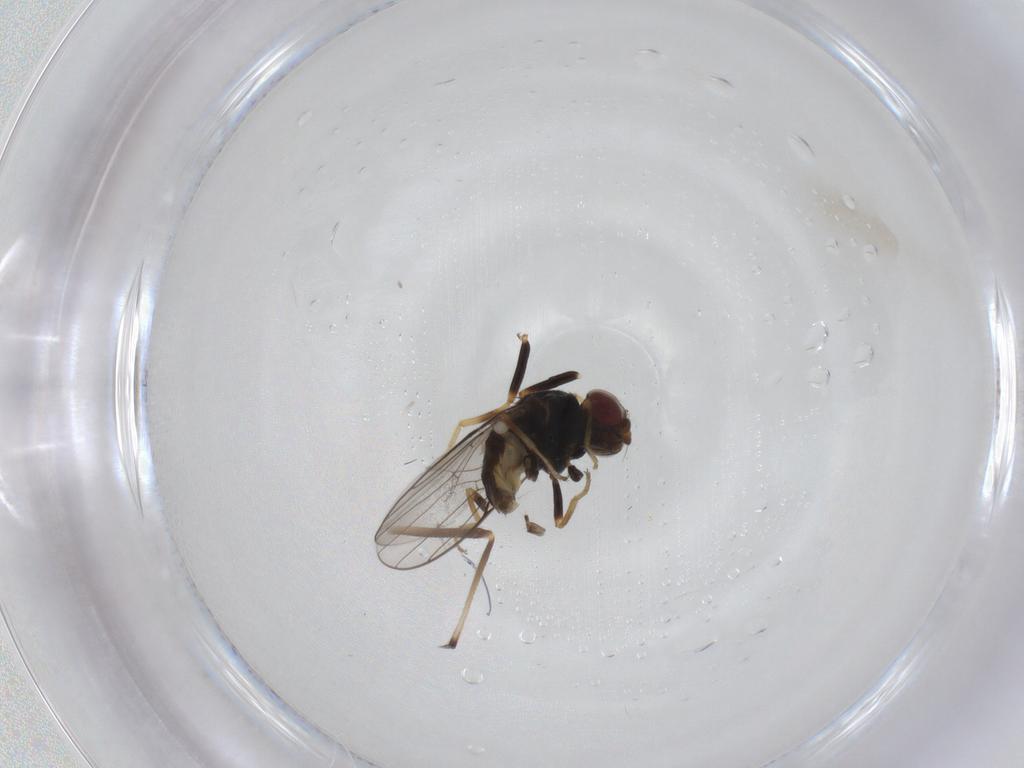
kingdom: Animalia
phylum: Arthropoda
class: Insecta
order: Diptera
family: Chloropidae
